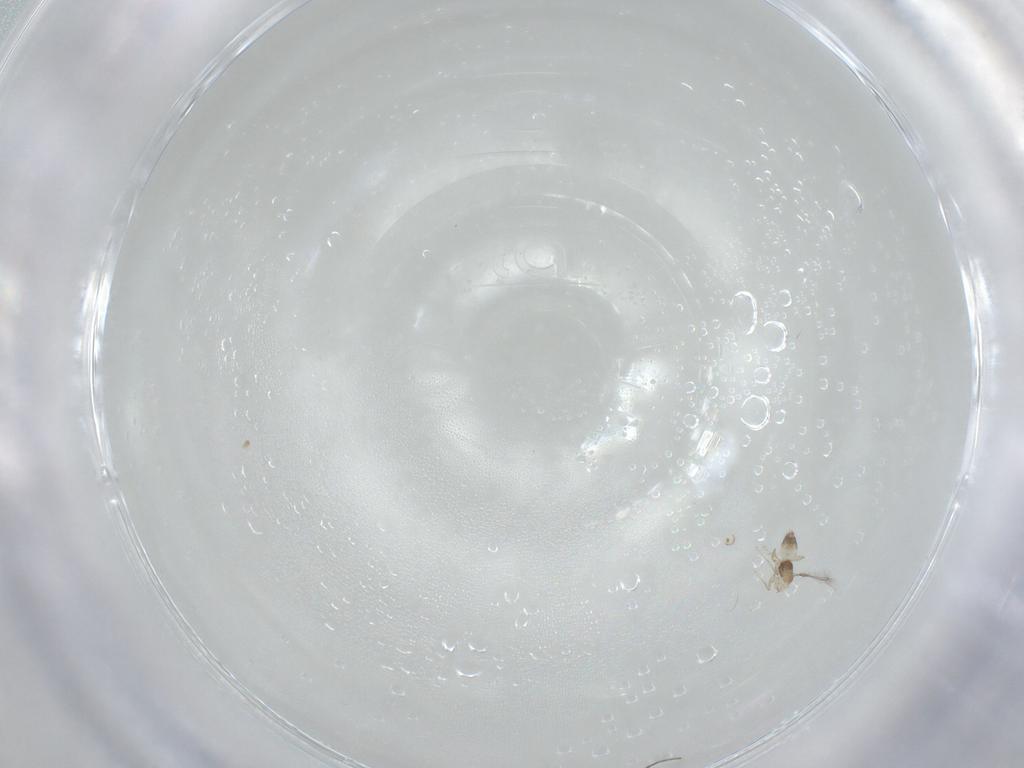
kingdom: Animalia
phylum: Arthropoda
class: Insecta
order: Hymenoptera
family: Mymaridae
